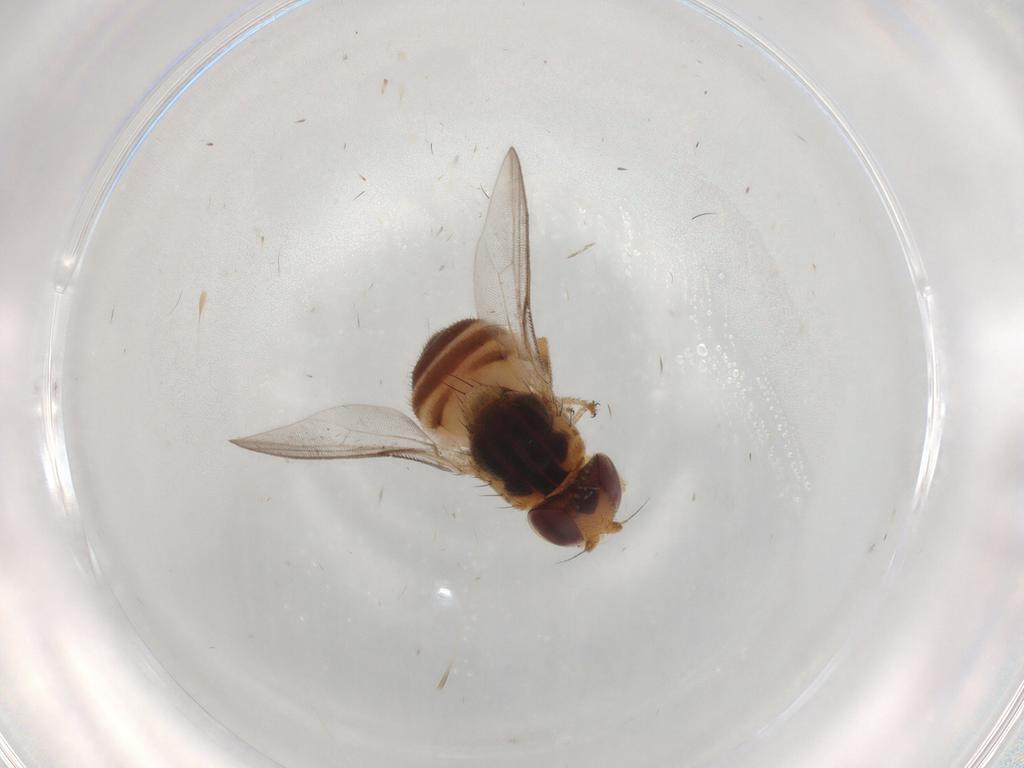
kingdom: Animalia
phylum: Arthropoda
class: Insecta
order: Diptera
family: Chloropidae
